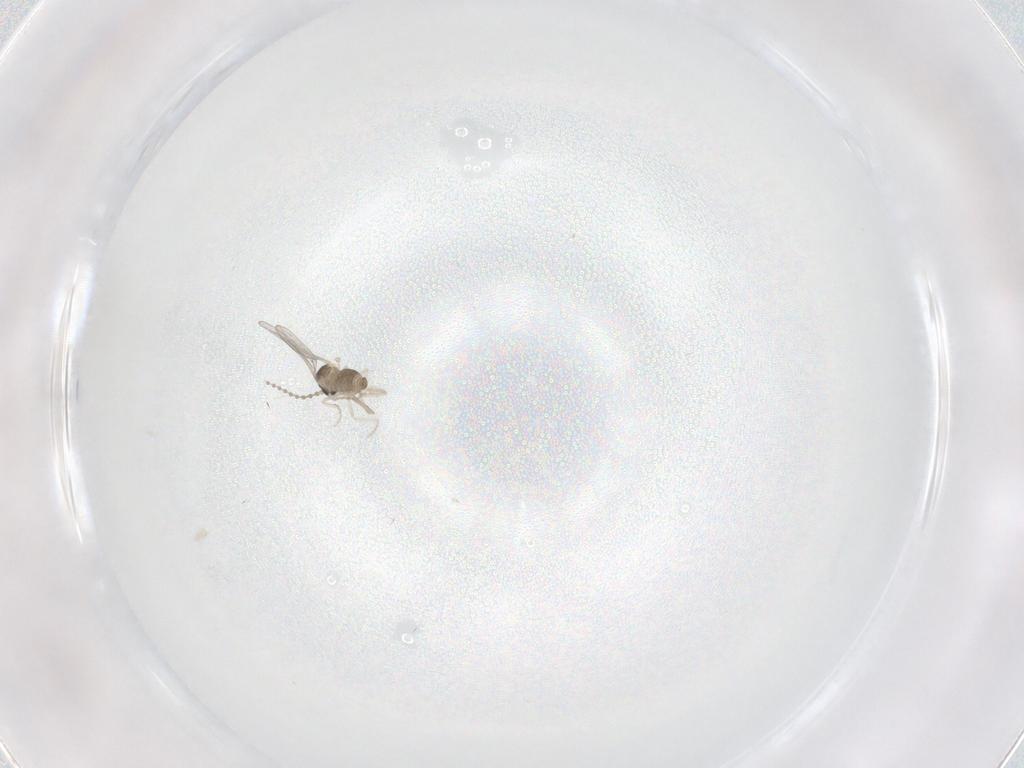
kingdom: Animalia
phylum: Arthropoda
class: Insecta
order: Diptera
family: Cecidomyiidae
